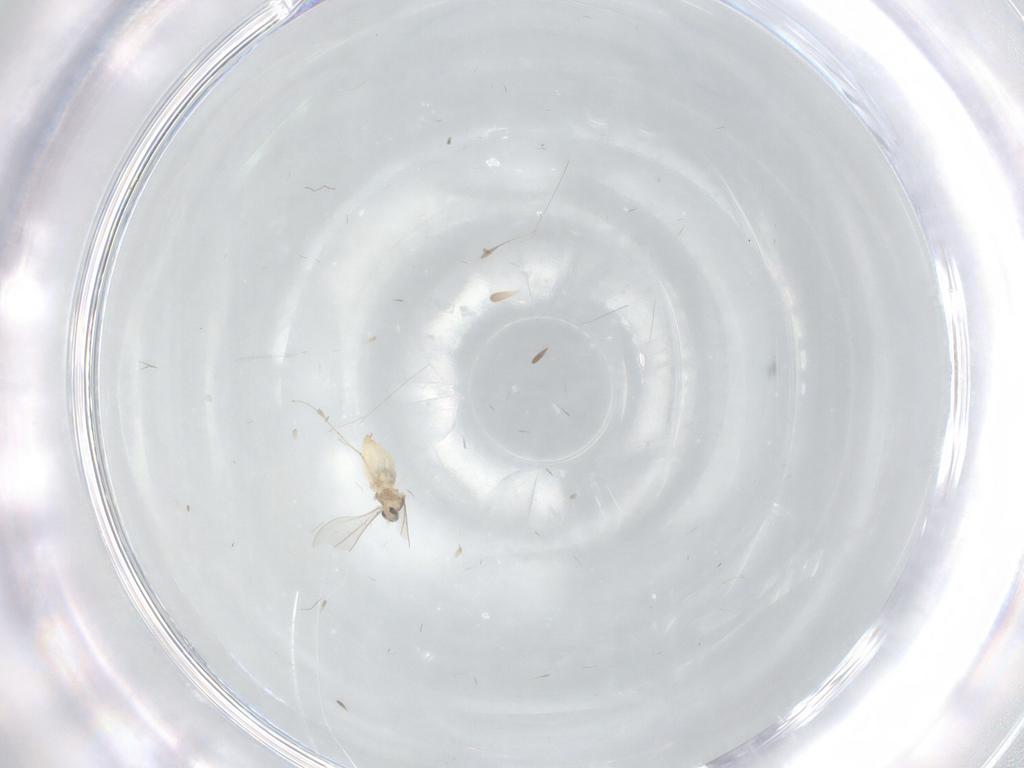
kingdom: Animalia
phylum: Arthropoda
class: Insecta
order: Diptera
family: Cecidomyiidae
